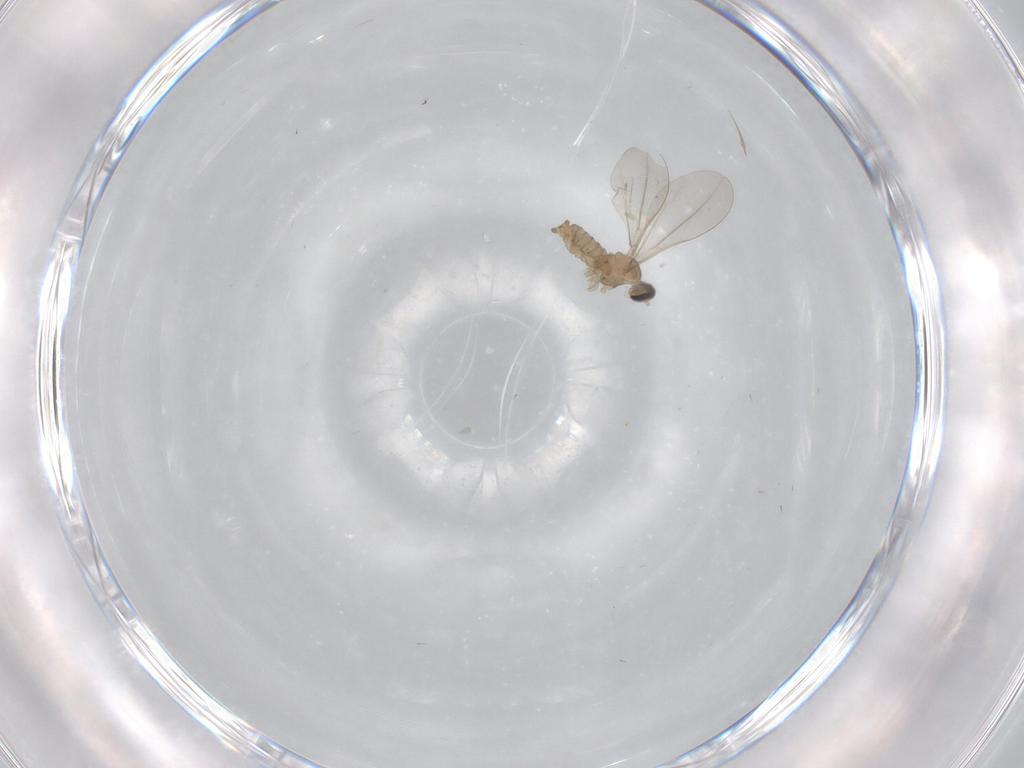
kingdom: Animalia
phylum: Arthropoda
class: Insecta
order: Diptera
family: Cecidomyiidae
